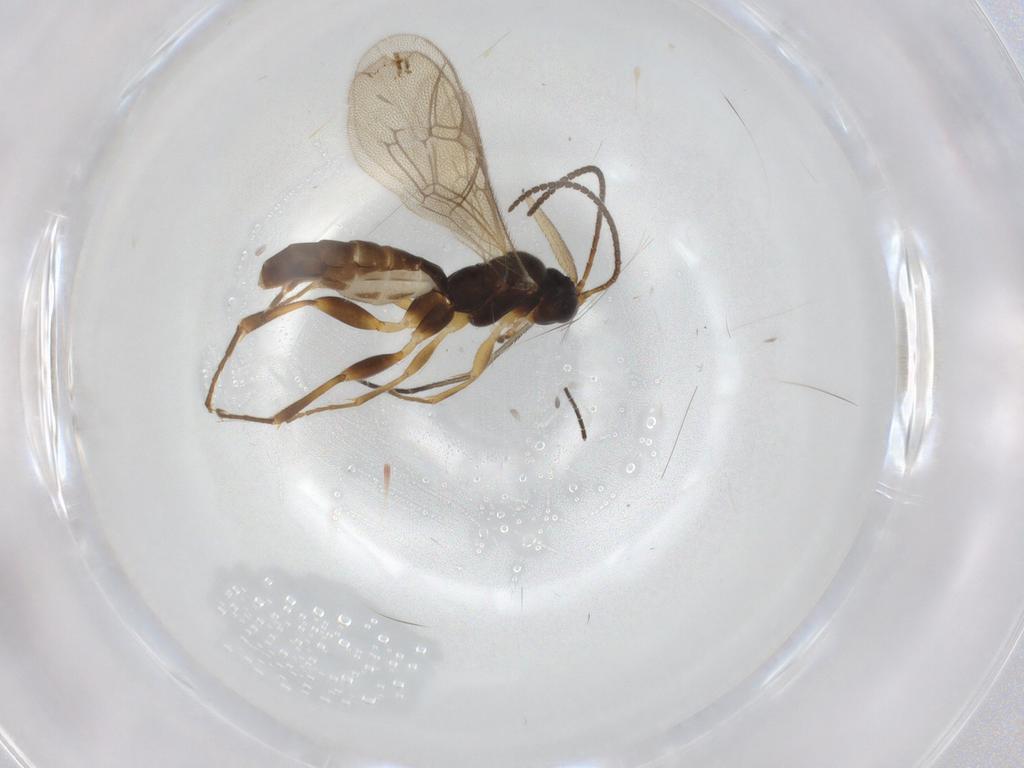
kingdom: Animalia
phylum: Arthropoda
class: Insecta
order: Hymenoptera
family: Ichneumonidae
